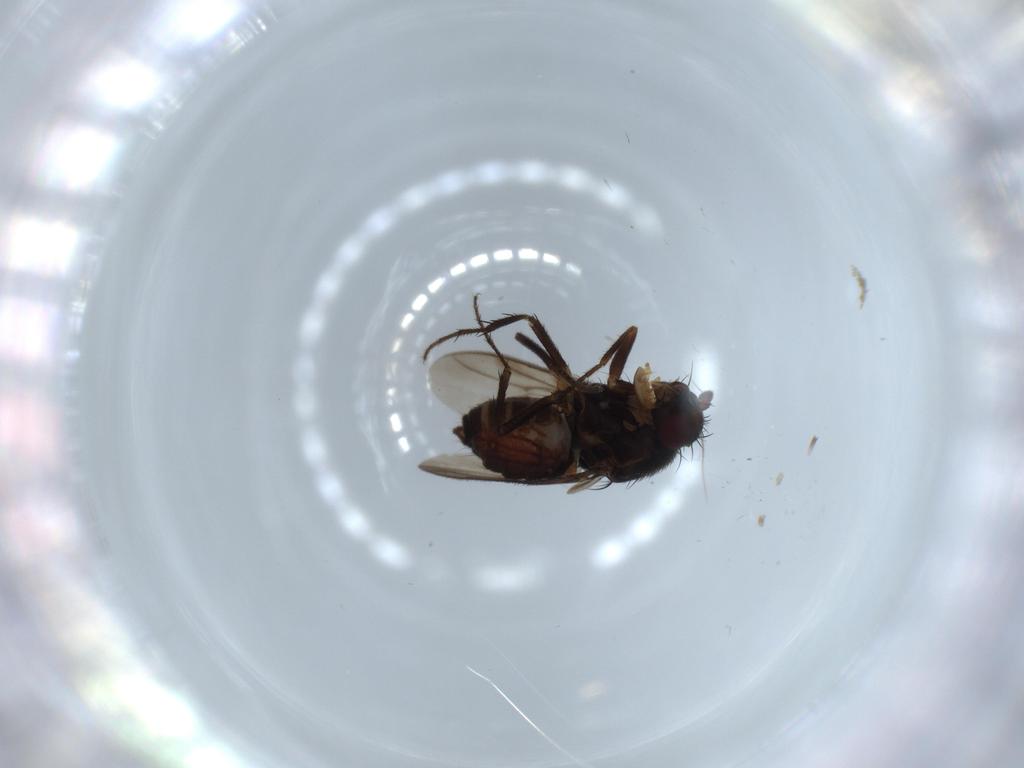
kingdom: Animalia
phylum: Arthropoda
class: Insecta
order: Diptera
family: Sphaeroceridae
